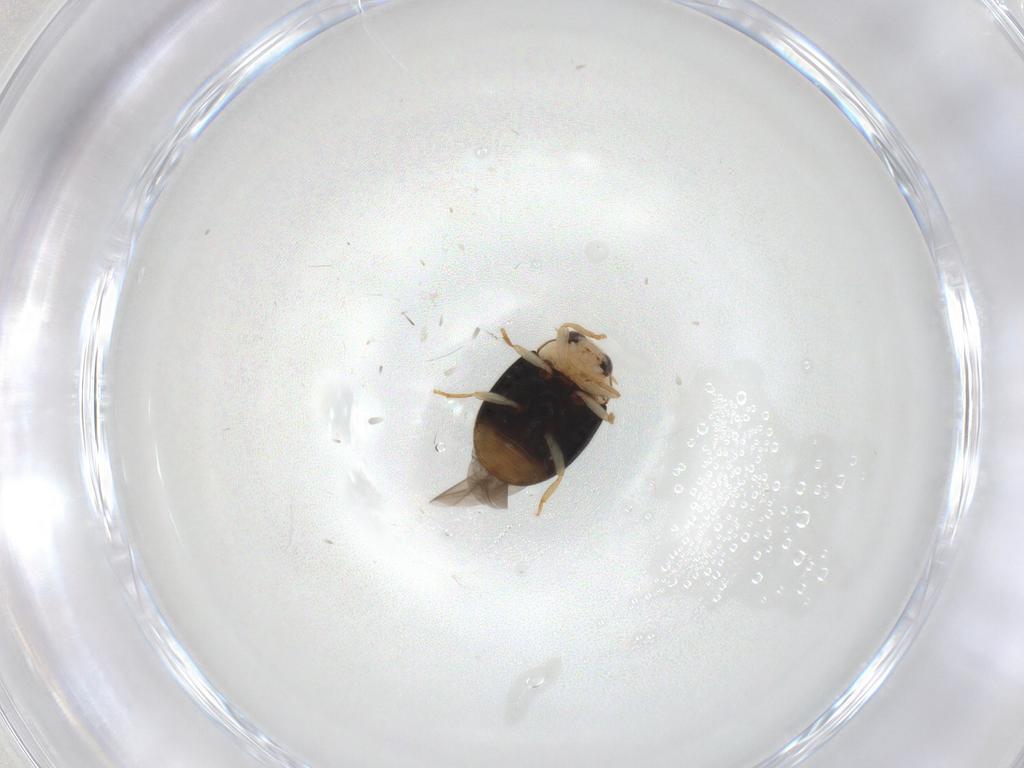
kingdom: Animalia
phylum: Arthropoda
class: Insecta
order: Coleoptera
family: Coccinellidae
